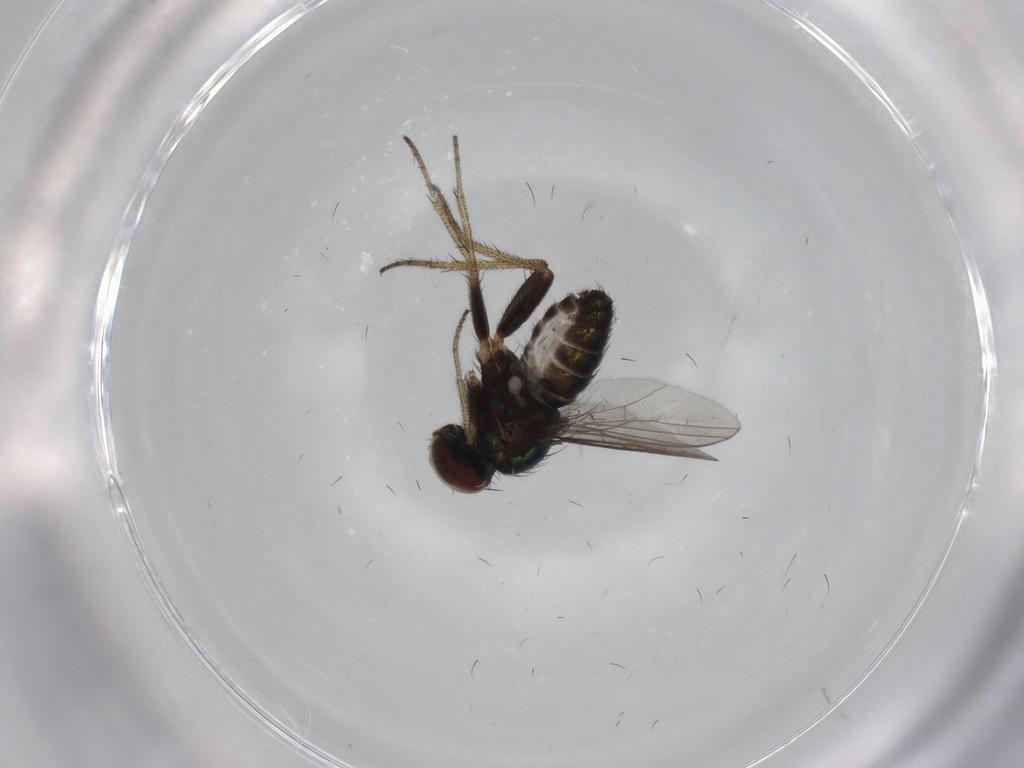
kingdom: Animalia
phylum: Arthropoda
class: Insecta
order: Diptera
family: Tabanidae
